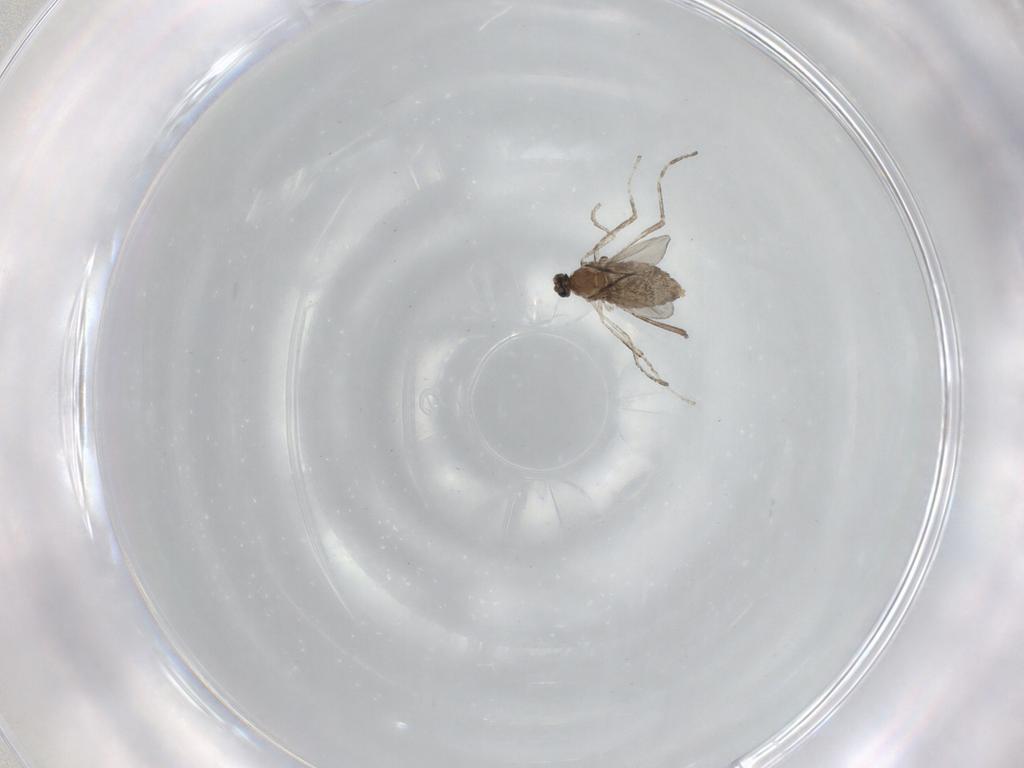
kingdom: Animalia
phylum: Arthropoda
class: Insecta
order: Diptera
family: Cecidomyiidae
